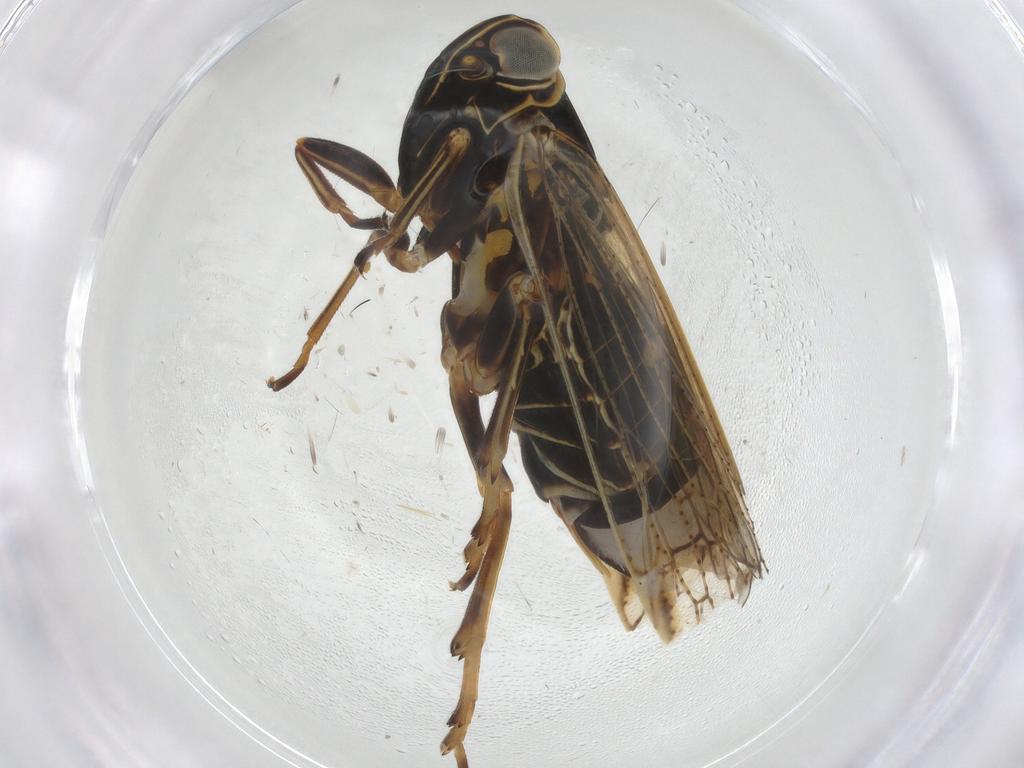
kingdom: Animalia
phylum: Arthropoda
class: Insecta
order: Hemiptera
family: Cixiidae
